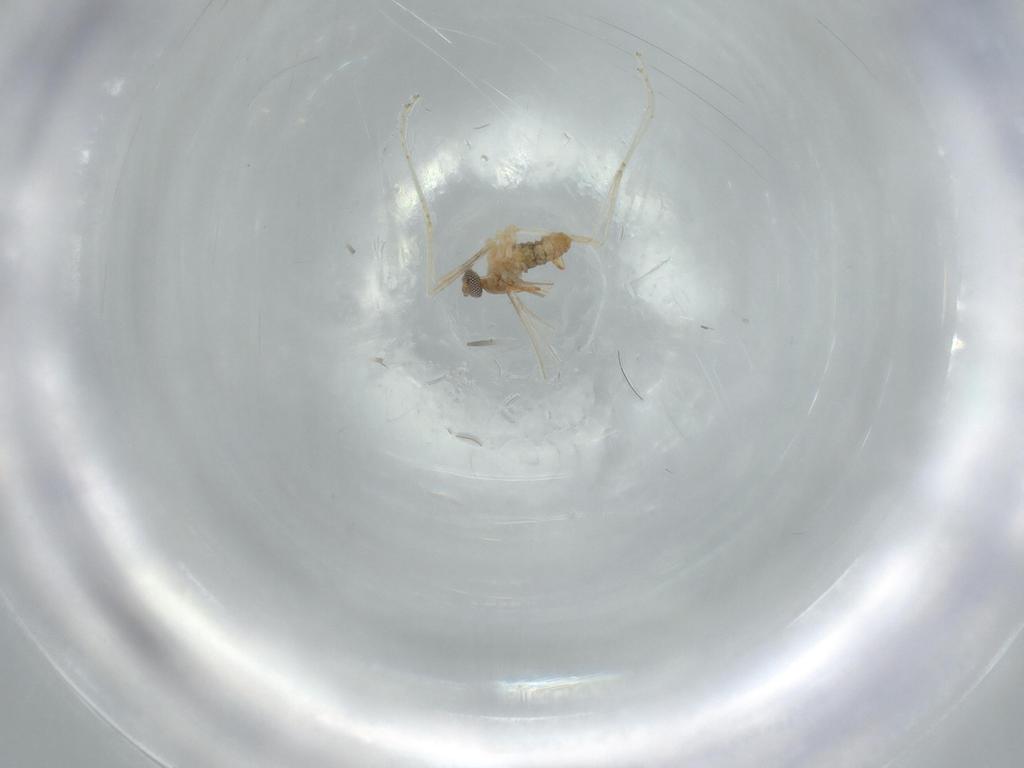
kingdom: Animalia
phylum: Arthropoda
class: Insecta
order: Diptera
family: Cecidomyiidae
